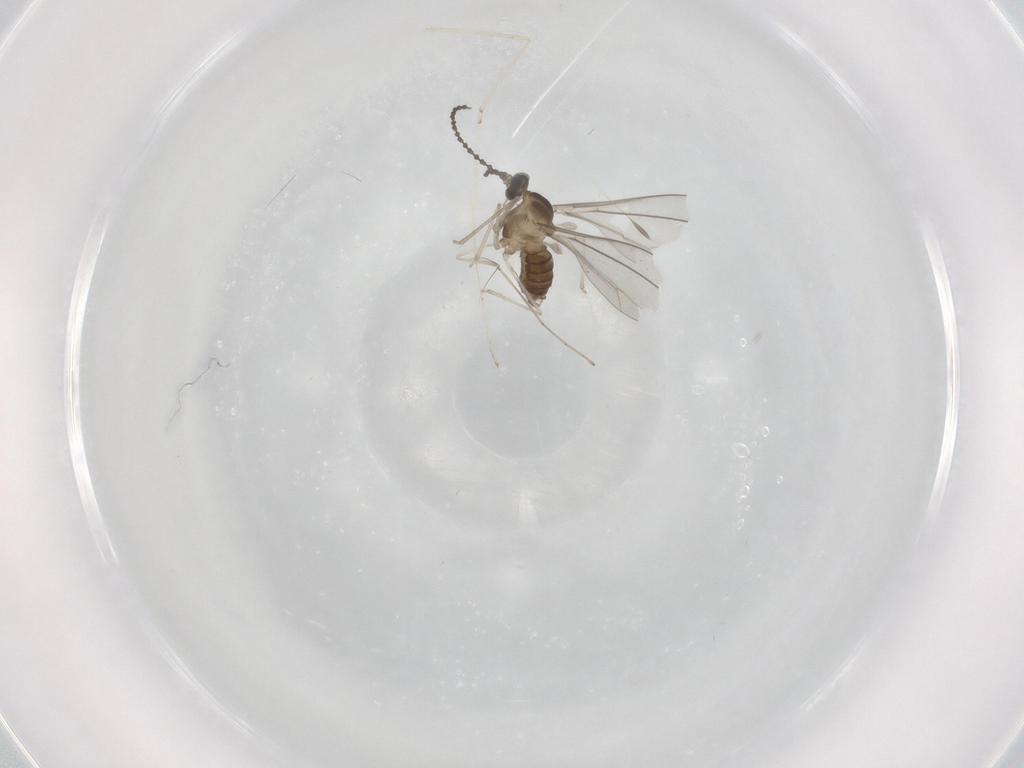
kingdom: Animalia
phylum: Arthropoda
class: Insecta
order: Diptera
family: Cecidomyiidae
